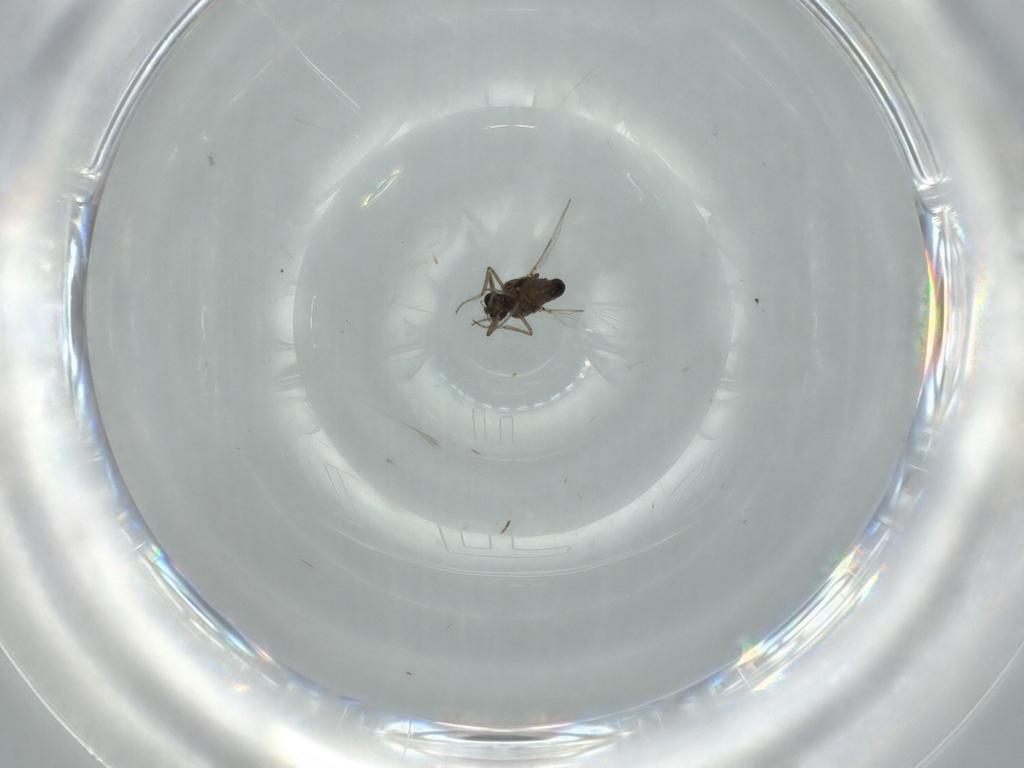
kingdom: Animalia
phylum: Arthropoda
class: Insecta
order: Diptera
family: Phoridae
